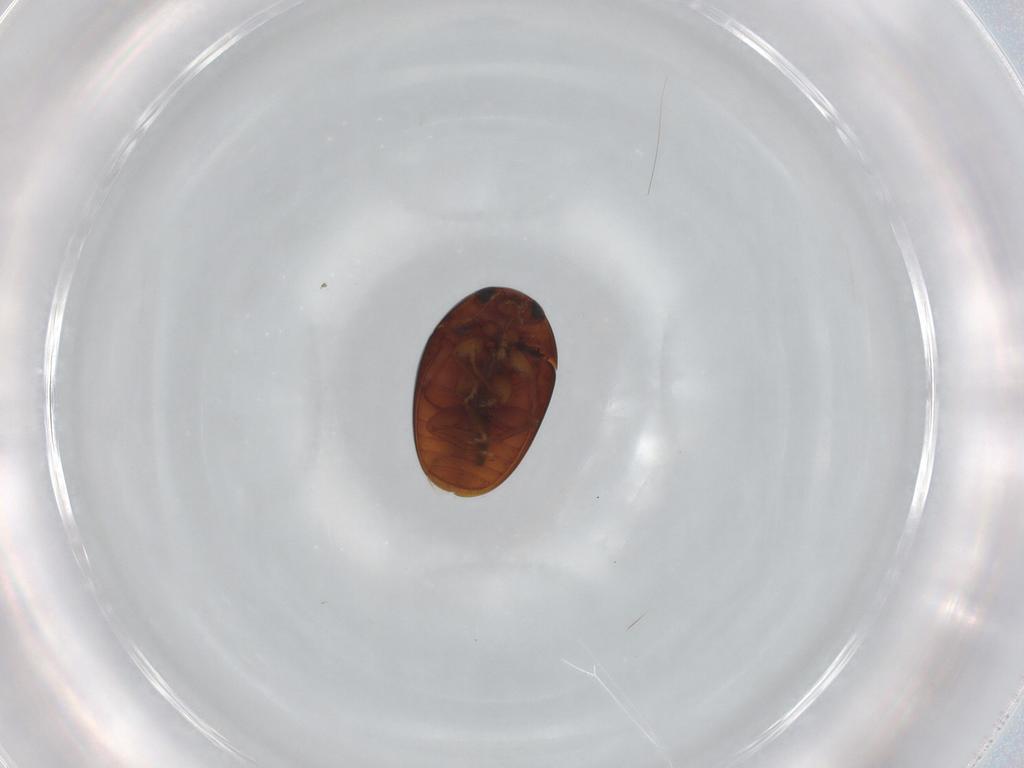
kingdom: Animalia
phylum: Arthropoda
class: Insecta
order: Coleoptera
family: Phalacridae
